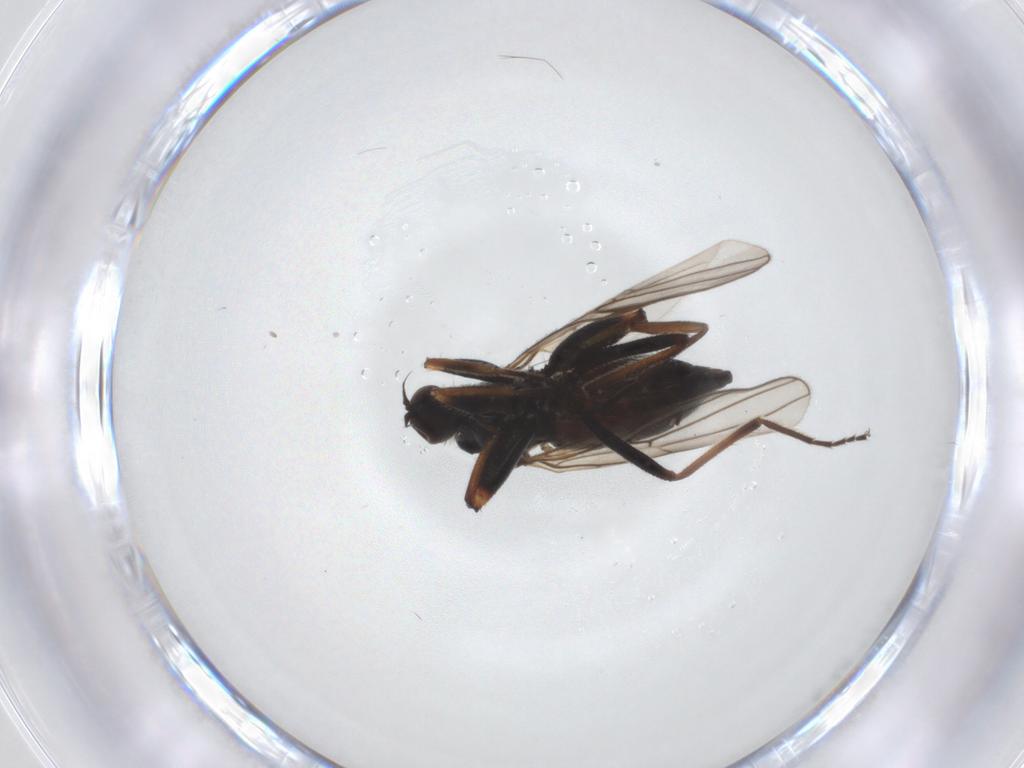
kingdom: Animalia
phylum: Arthropoda
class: Insecta
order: Diptera
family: Hybotidae
